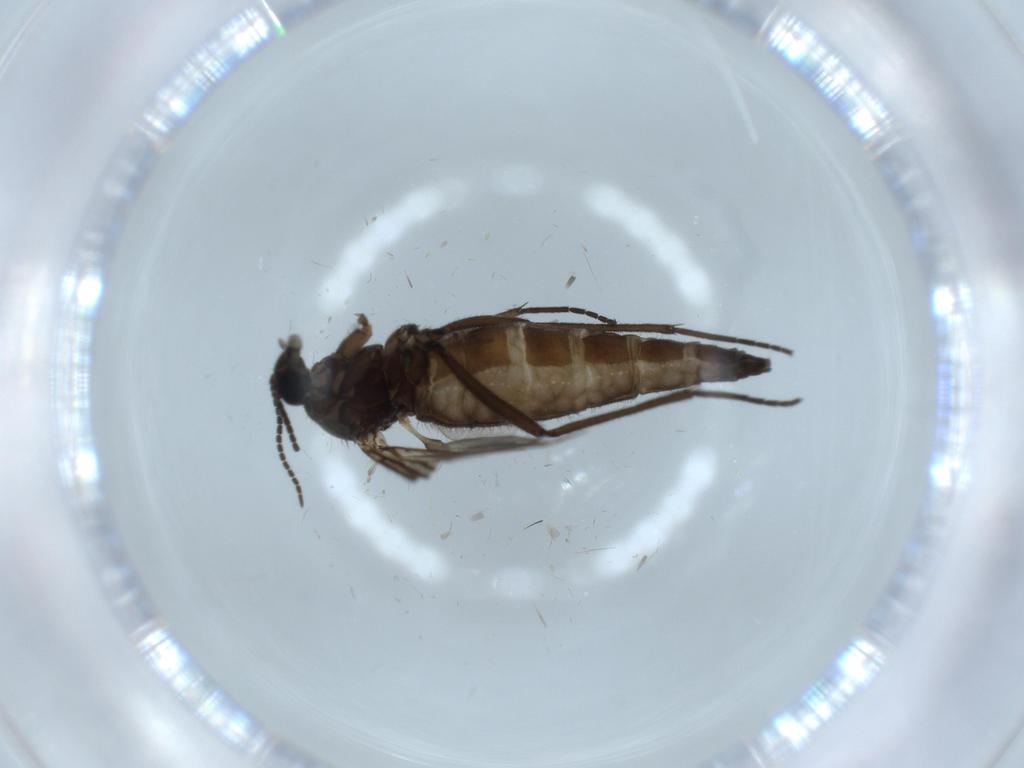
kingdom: Animalia
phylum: Arthropoda
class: Insecta
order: Diptera
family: Sciaridae
